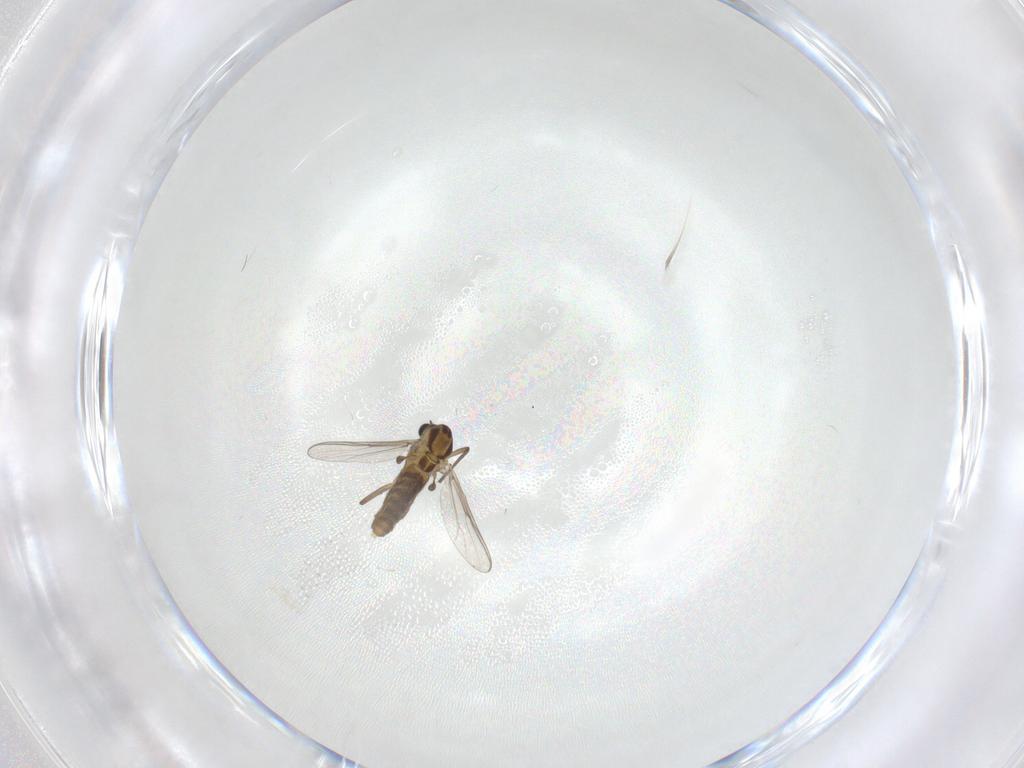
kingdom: Animalia
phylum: Arthropoda
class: Insecta
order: Diptera
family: Chironomidae
